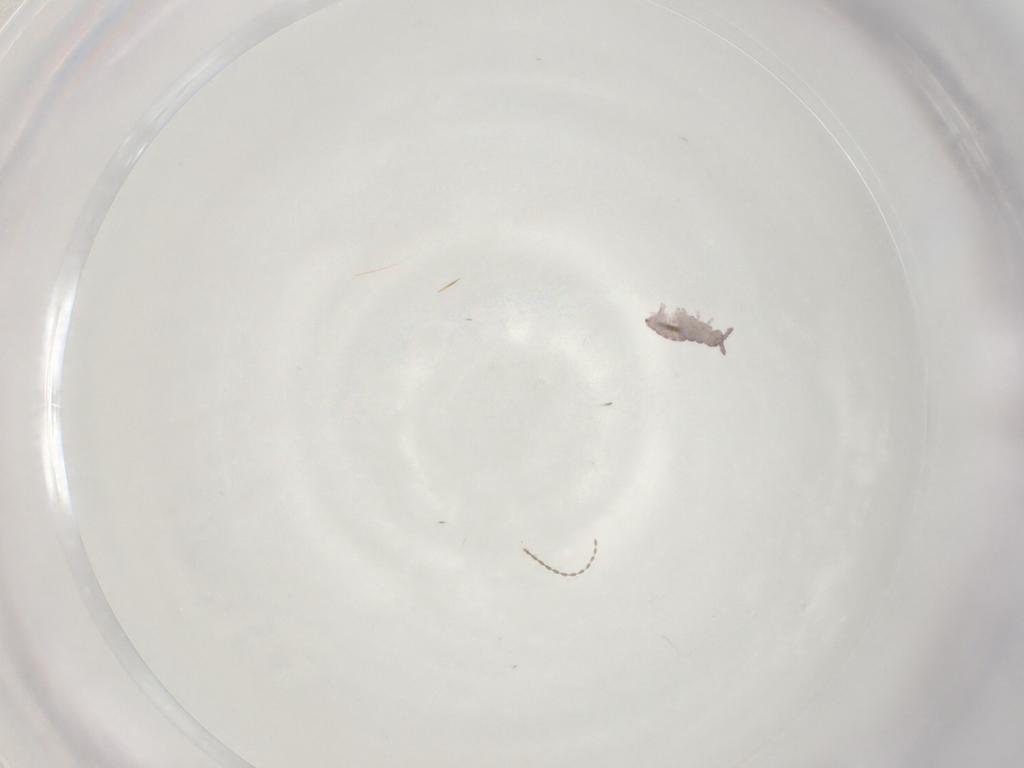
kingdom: Animalia
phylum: Arthropoda
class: Collembola
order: Poduromorpha
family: Hypogastruridae
